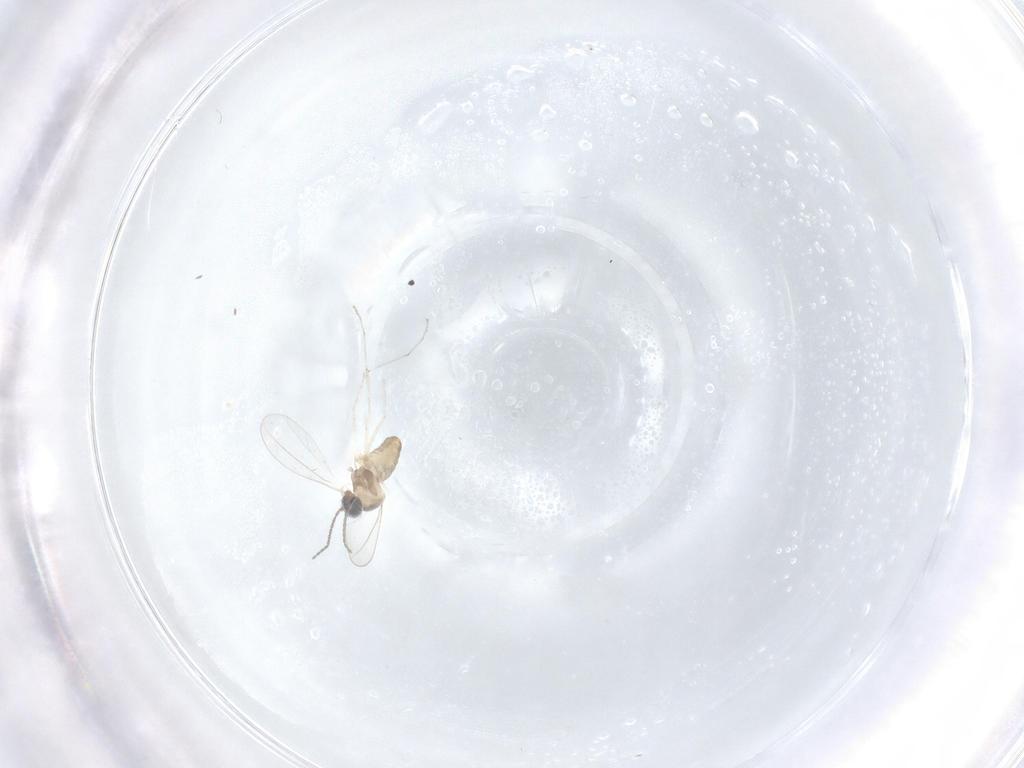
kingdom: Animalia
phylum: Arthropoda
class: Insecta
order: Diptera
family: Cecidomyiidae
